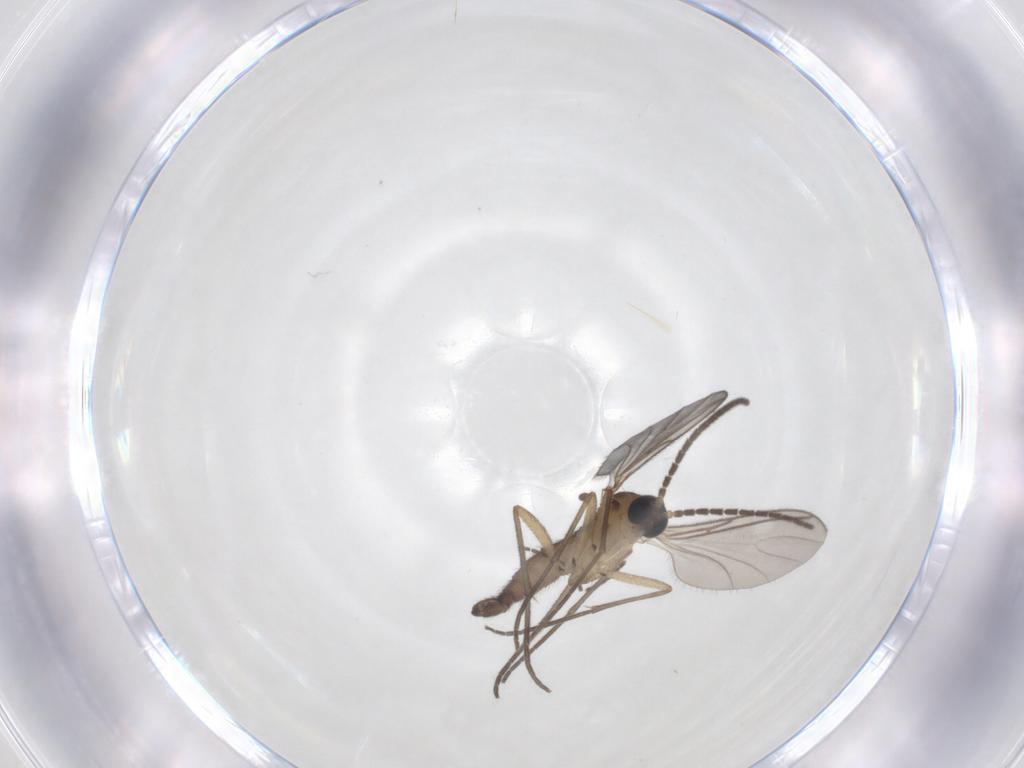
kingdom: Animalia
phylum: Arthropoda
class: Insecta
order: Diptera
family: Sciaridae
